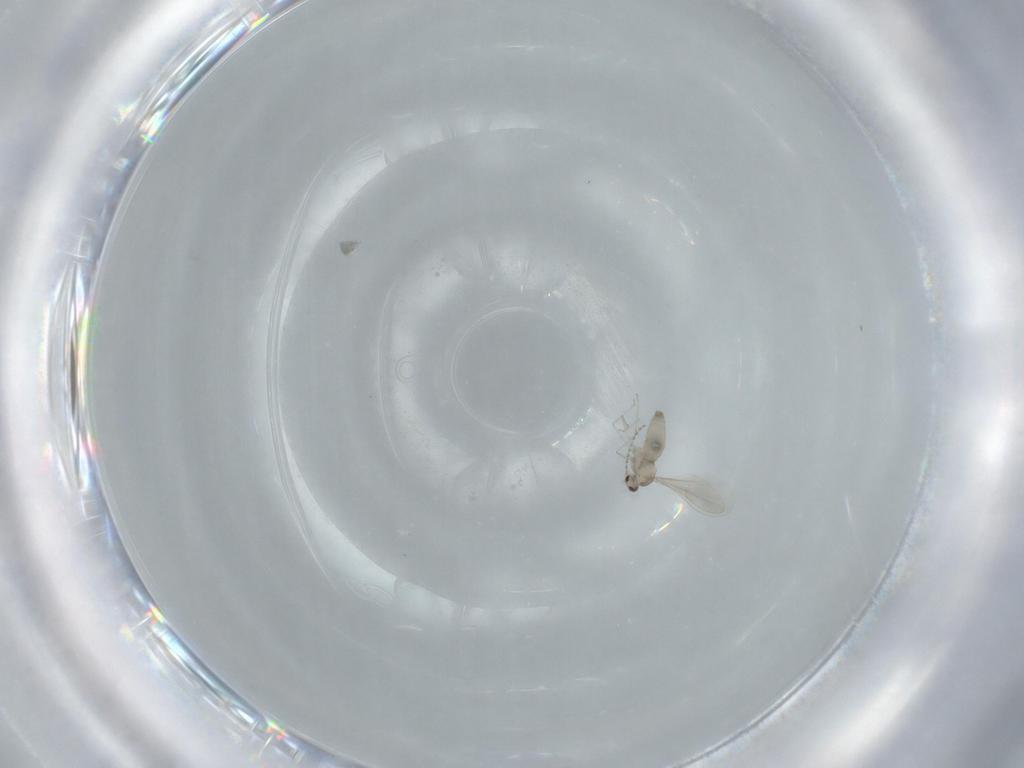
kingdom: Animalia
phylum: Arthropoda
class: Insecta
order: Diptera
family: Cecidomyiidae
